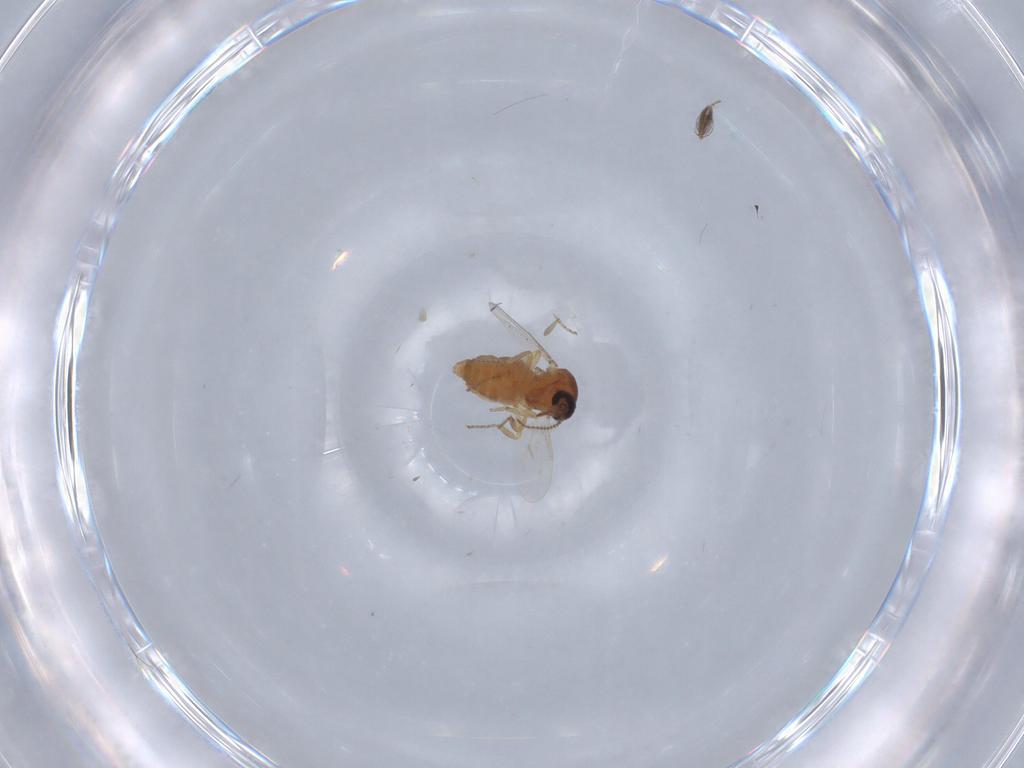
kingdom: Animalia
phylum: Arthropoda
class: Insecta
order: Diptera
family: Ceratopogonidae
